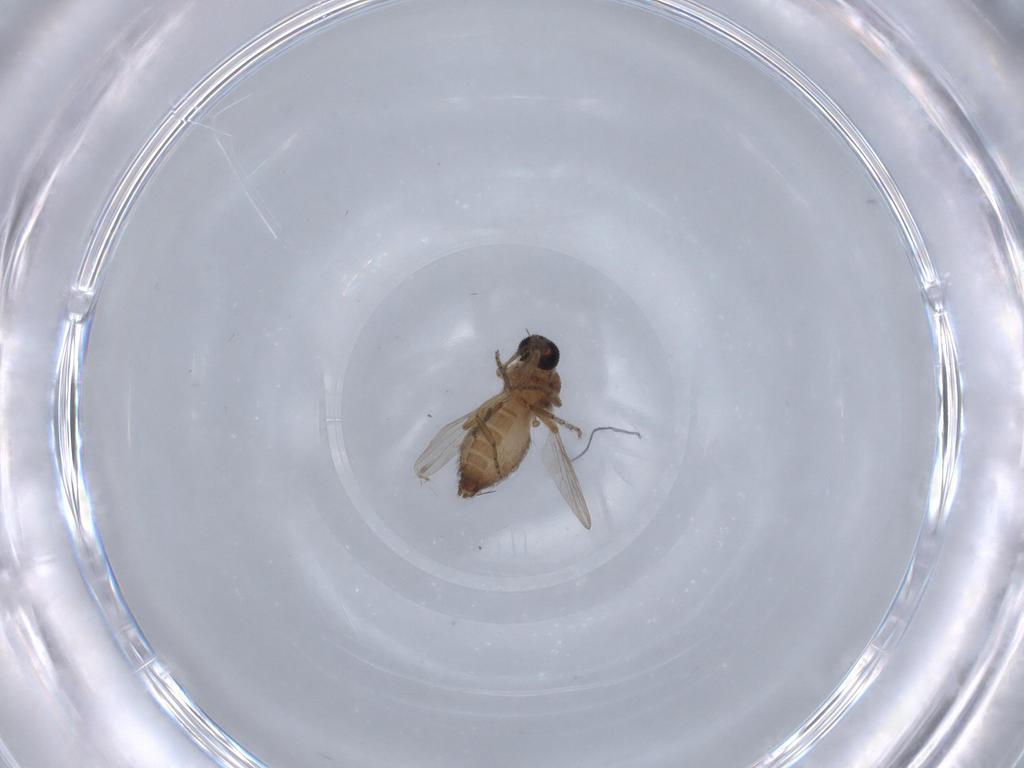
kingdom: Animalia
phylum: Arthropoda
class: Insecta
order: Diptera
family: Ceratopogonidae
